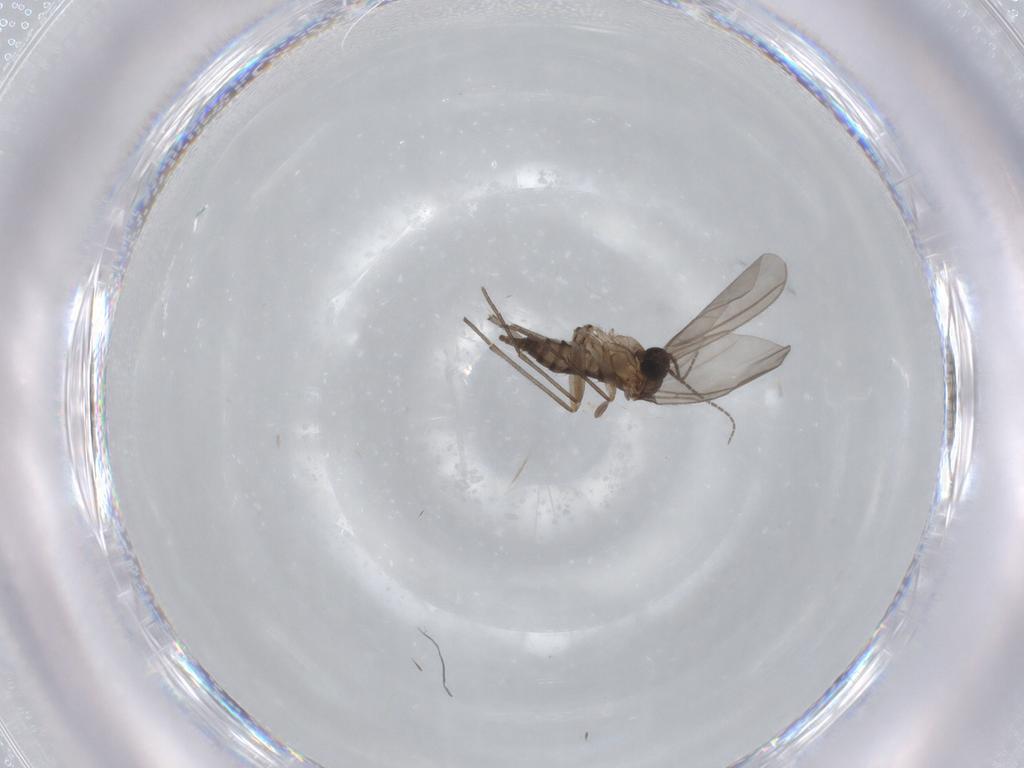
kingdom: Animalia
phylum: Arthropoda
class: Insecta
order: Diptera
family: Sciaridae
